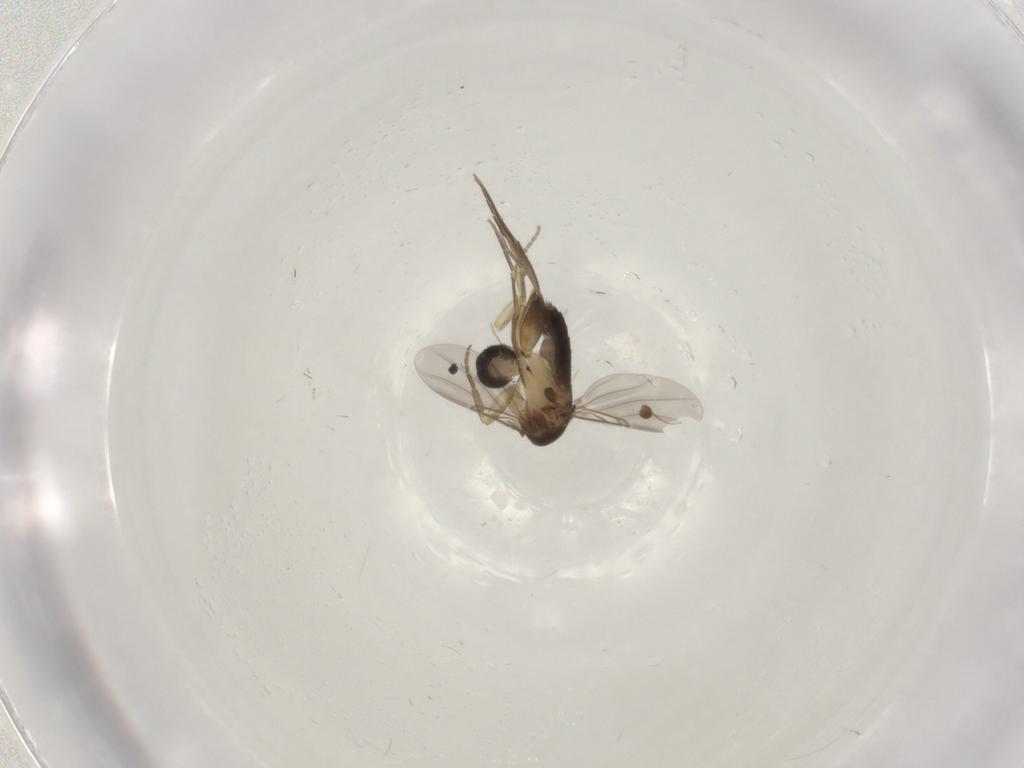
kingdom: Animalia
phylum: Arthropoda
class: Insecta
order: Diptera
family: Phoridae
